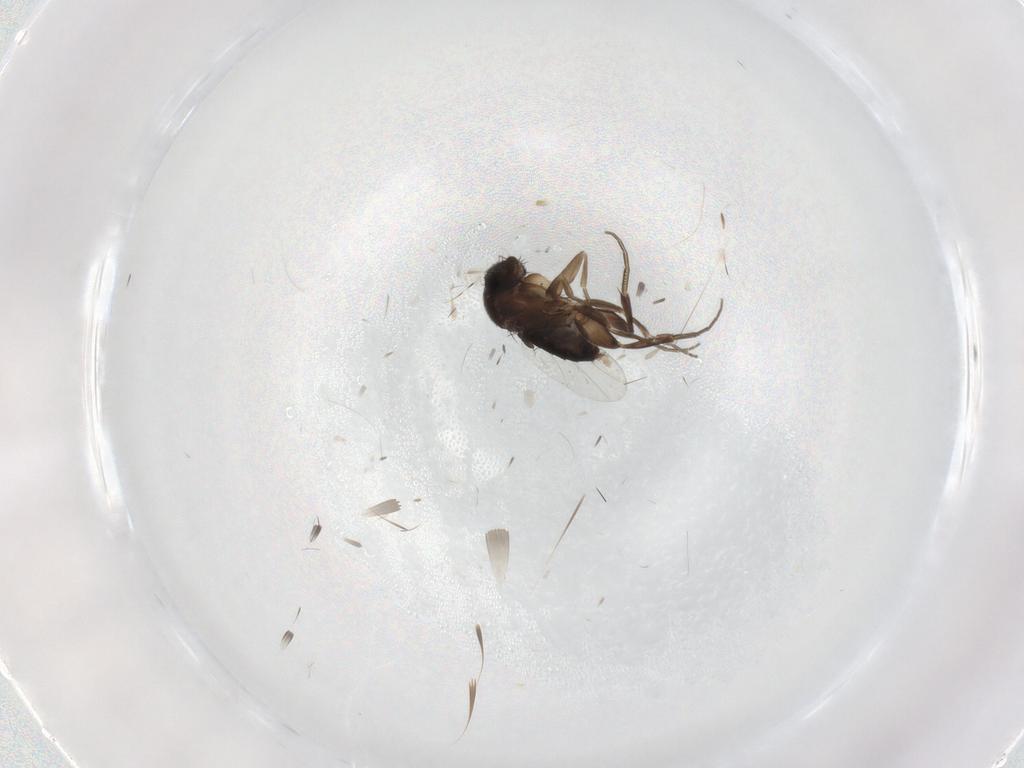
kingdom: Animalia
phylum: Arthropoda
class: Insecta
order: Diptera
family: Phoridae
